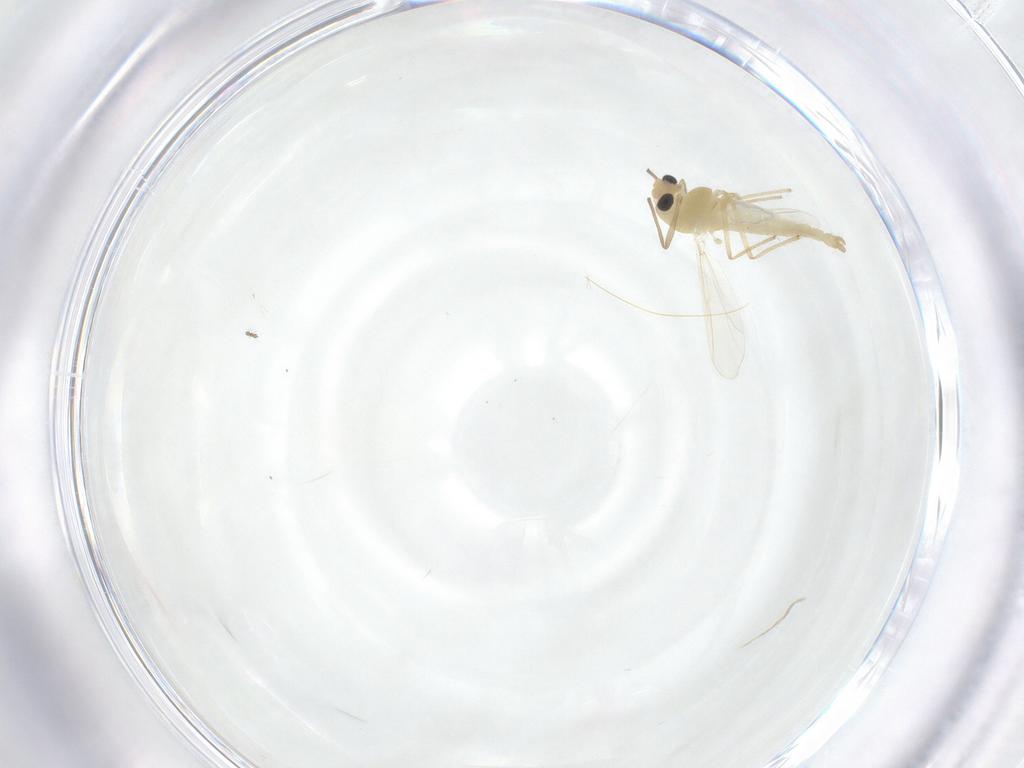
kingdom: Animalia
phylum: Arthropoda
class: Insecta
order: Diptera
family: Chironomidae
